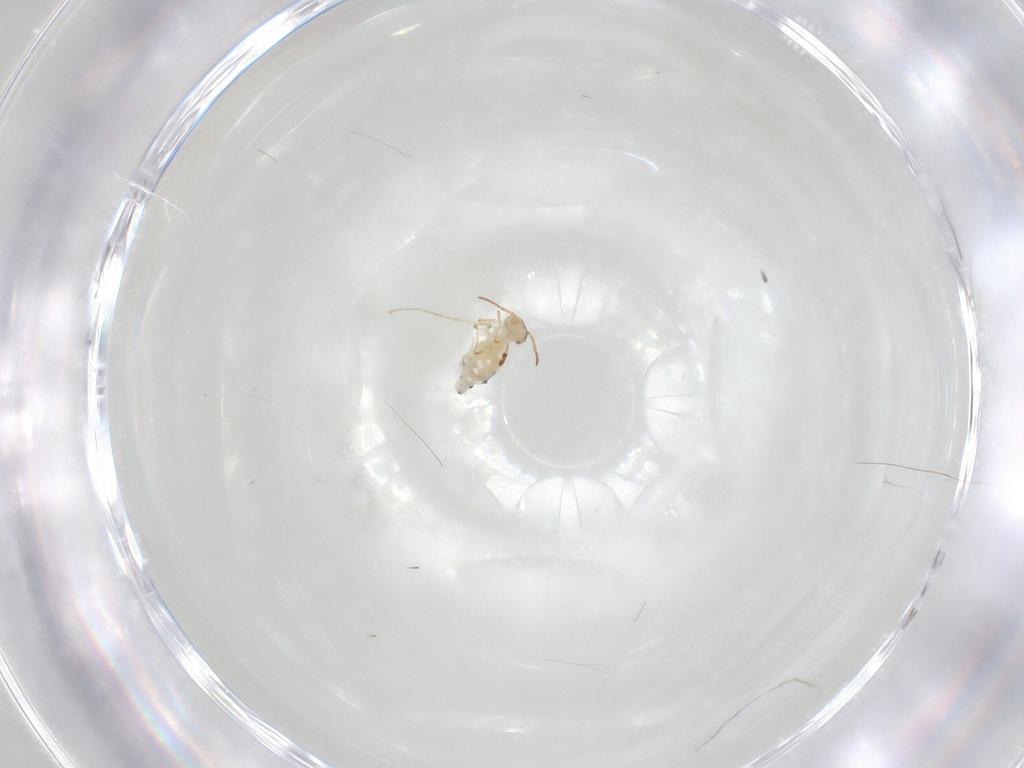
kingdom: Animalia
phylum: Arthropoda
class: Collembola
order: Symphypleona
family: Bourletiellidae
